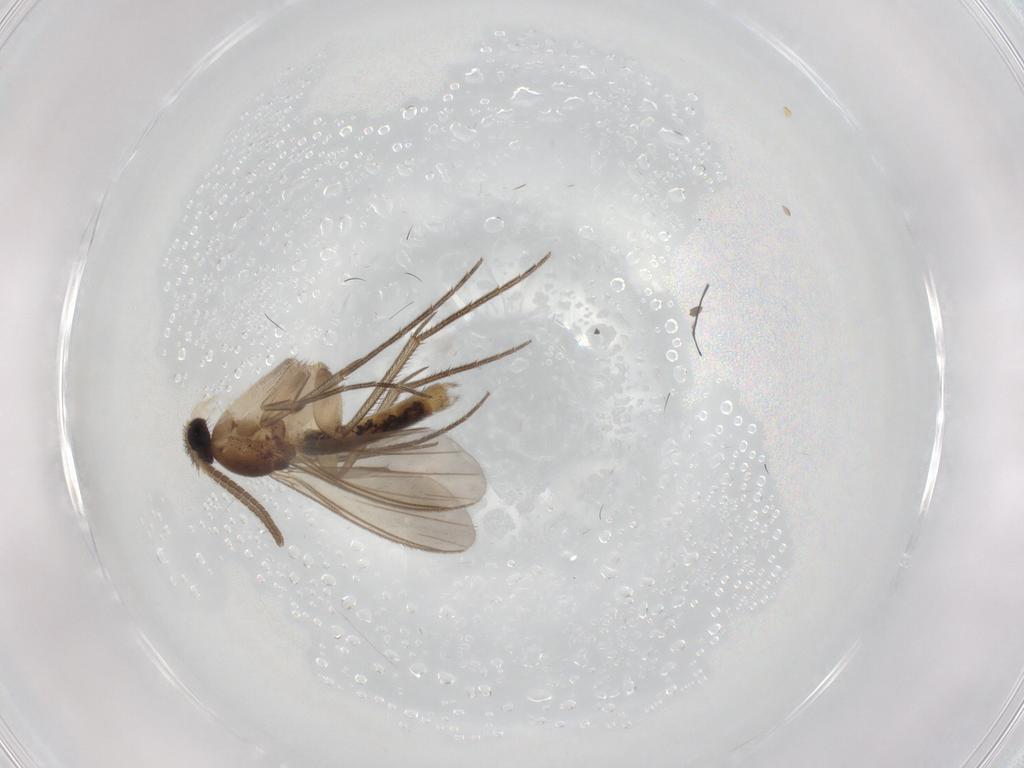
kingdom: Animalia
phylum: Arthropoda
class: Insecta
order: Diptera
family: Mycetophilidae
